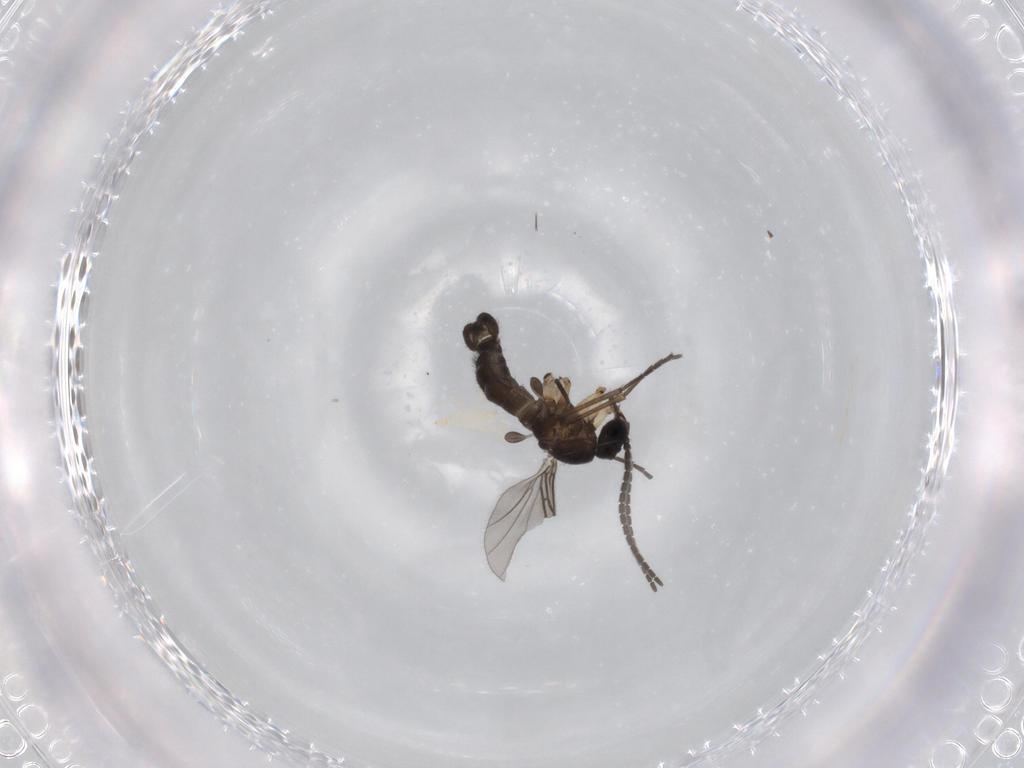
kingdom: Animalia
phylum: Arthropoda
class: Insecta
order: Diptera
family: Sciaridae
